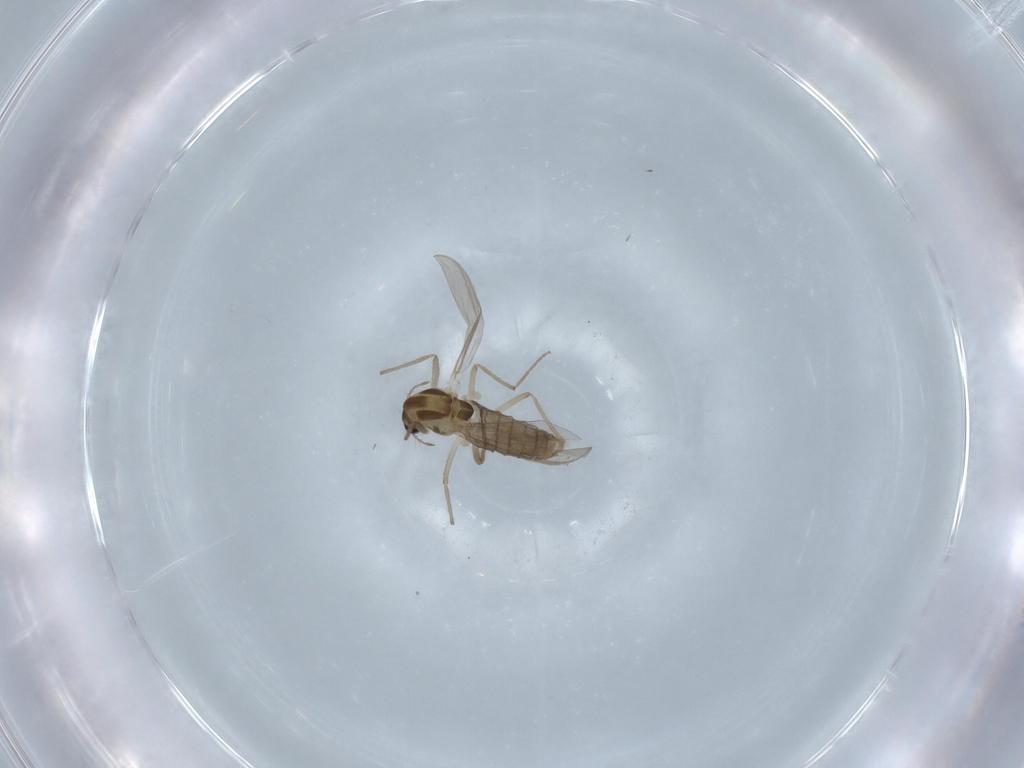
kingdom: Animalia
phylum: Arthropoda
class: Insecta
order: Diptera
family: Chironomidae
